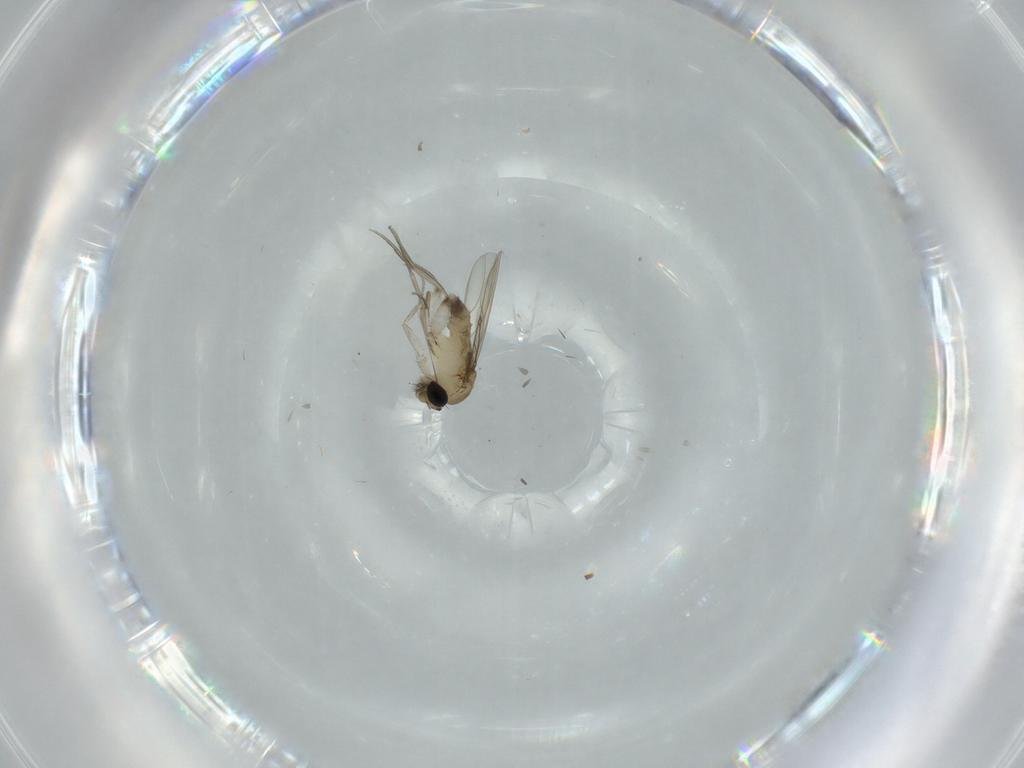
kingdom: Animalia
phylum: Arthropoda
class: Insecta
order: Diptera
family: Phoridae
